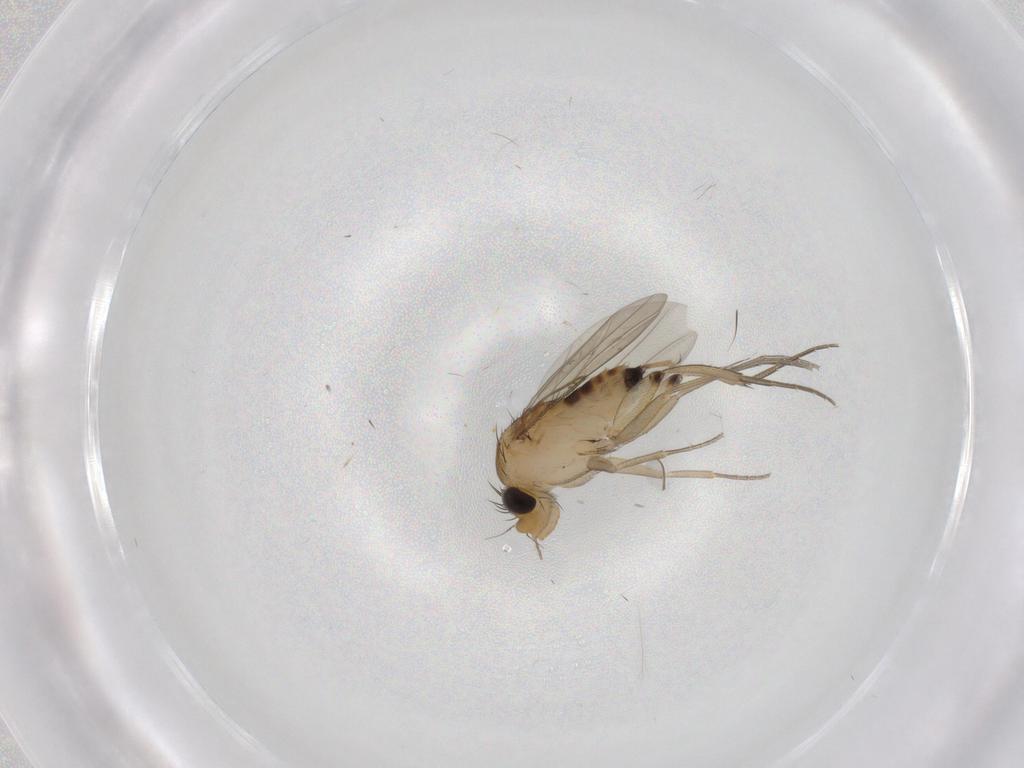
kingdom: Animalia
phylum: Arthropoda
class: Insecta
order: Diptera
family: Phoridae
